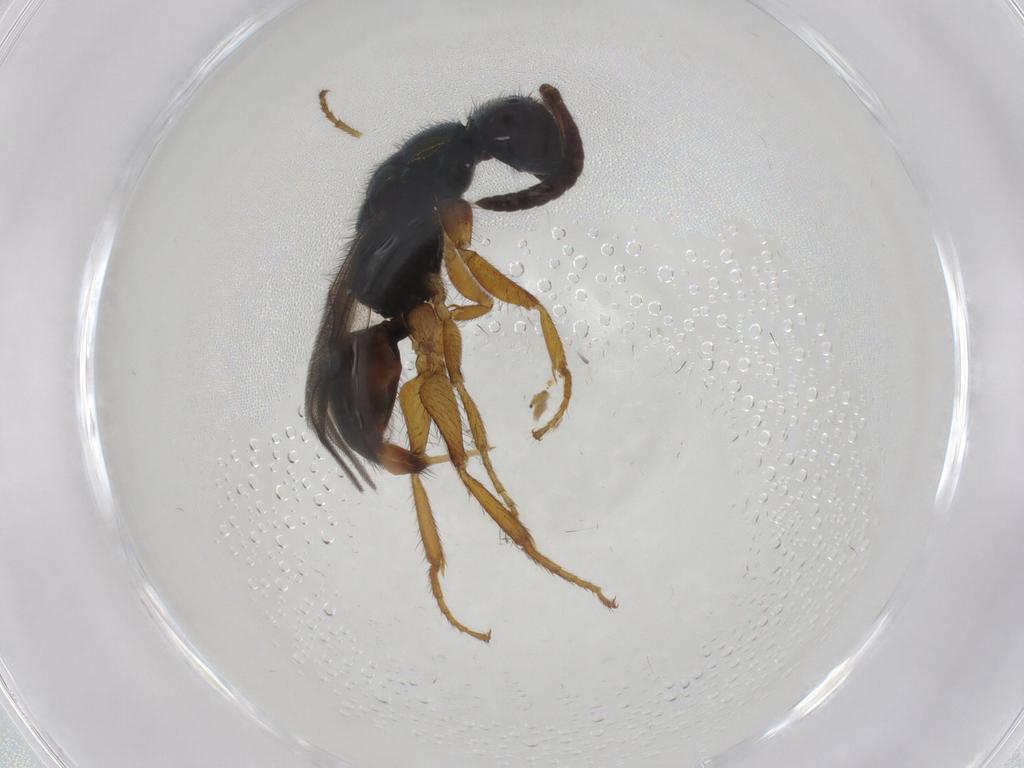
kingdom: Animalia
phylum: Arthropoda
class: Insecta
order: Hymenoptera
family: Chrysididae
